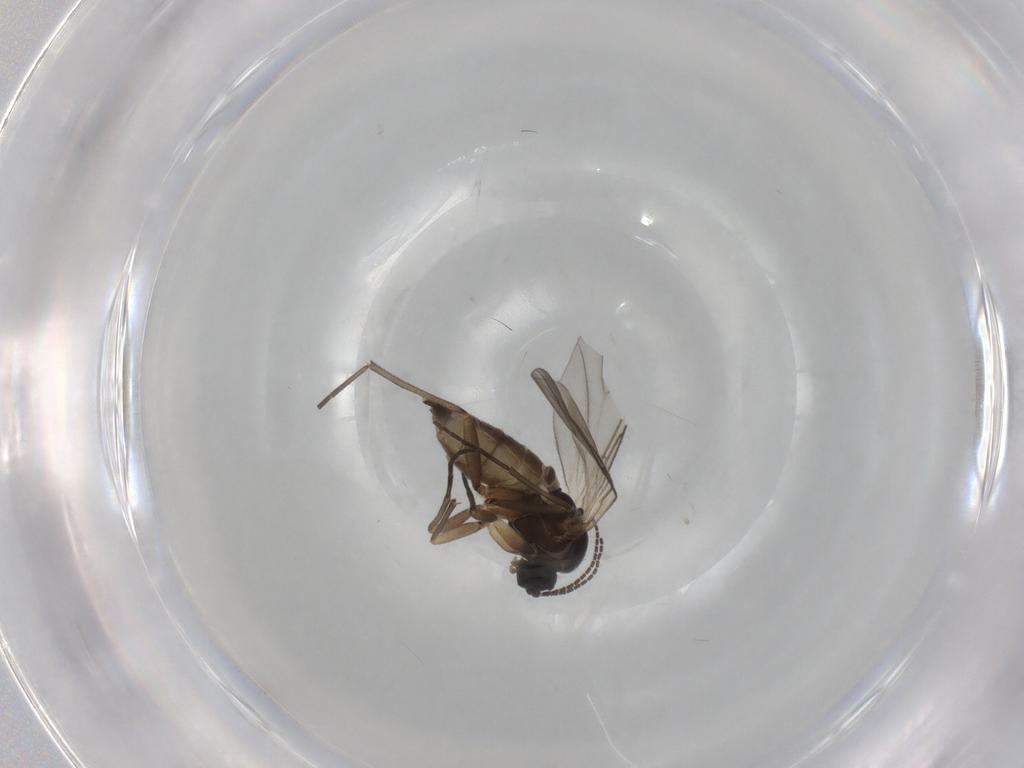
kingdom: Animalia
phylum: Arthropoda
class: Insecta
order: Diptera
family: Sciaridae
